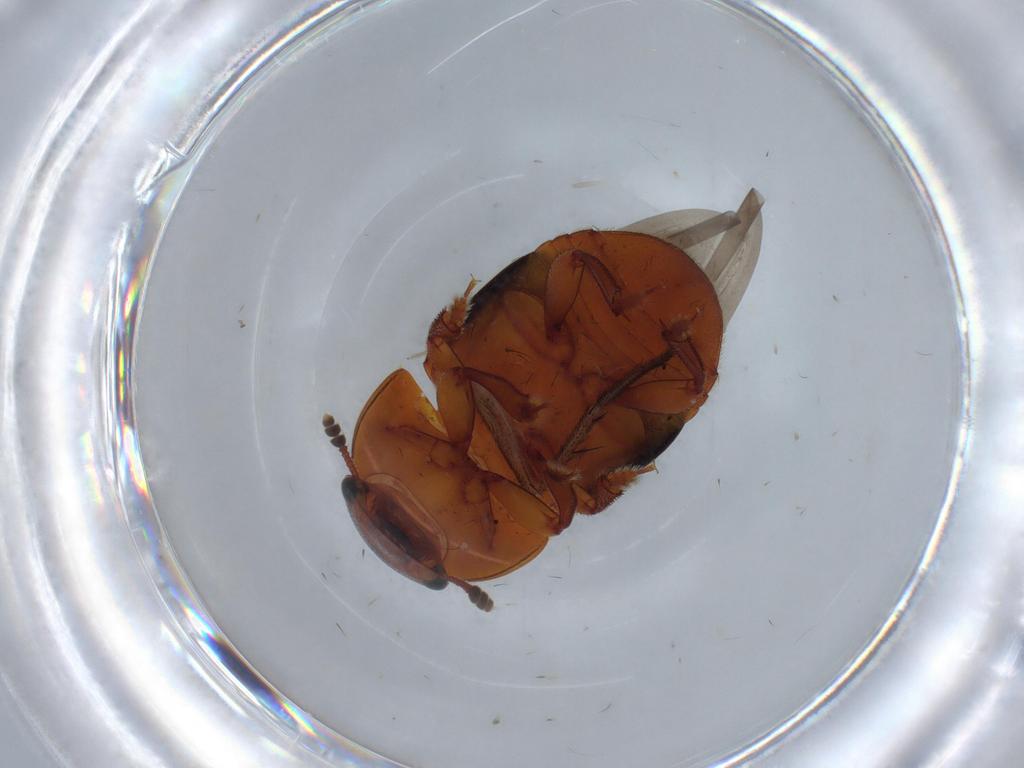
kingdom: Animalia
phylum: Arthropoda
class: Insecta
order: Coleoptera
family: Nitidulidae
